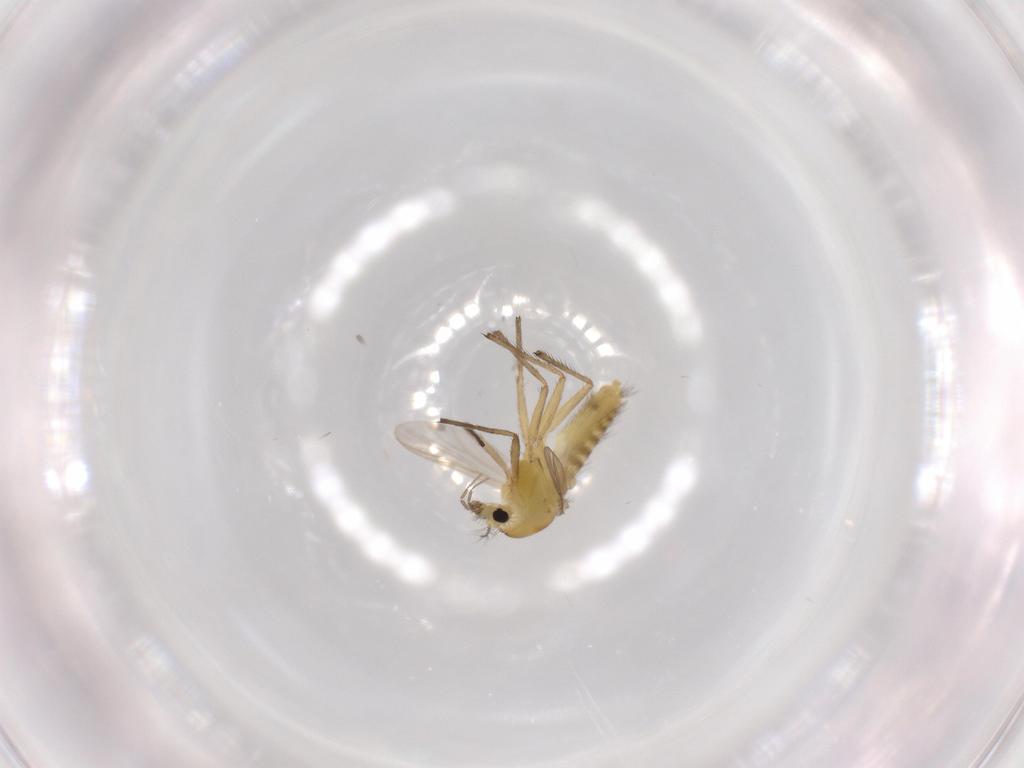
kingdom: Animalia
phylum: Arthropoda
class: Insecta
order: Diptera
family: Chironomidae
